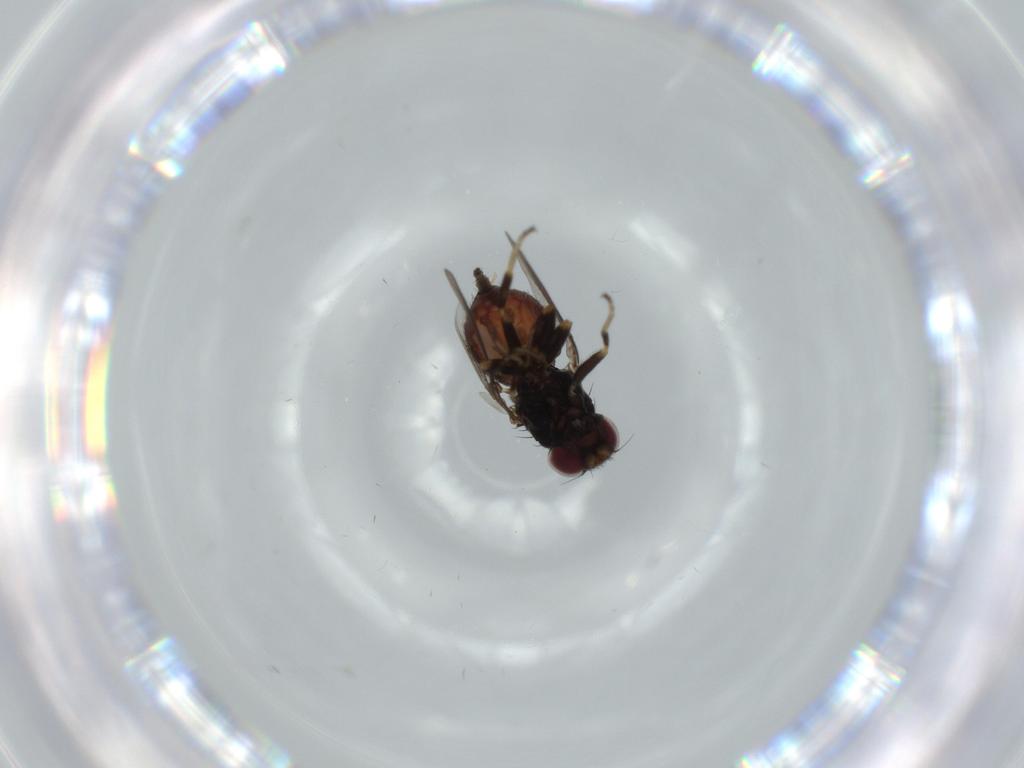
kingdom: Animalia
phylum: Arthropoda
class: Insecta
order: Diptera
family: Chloropidae
